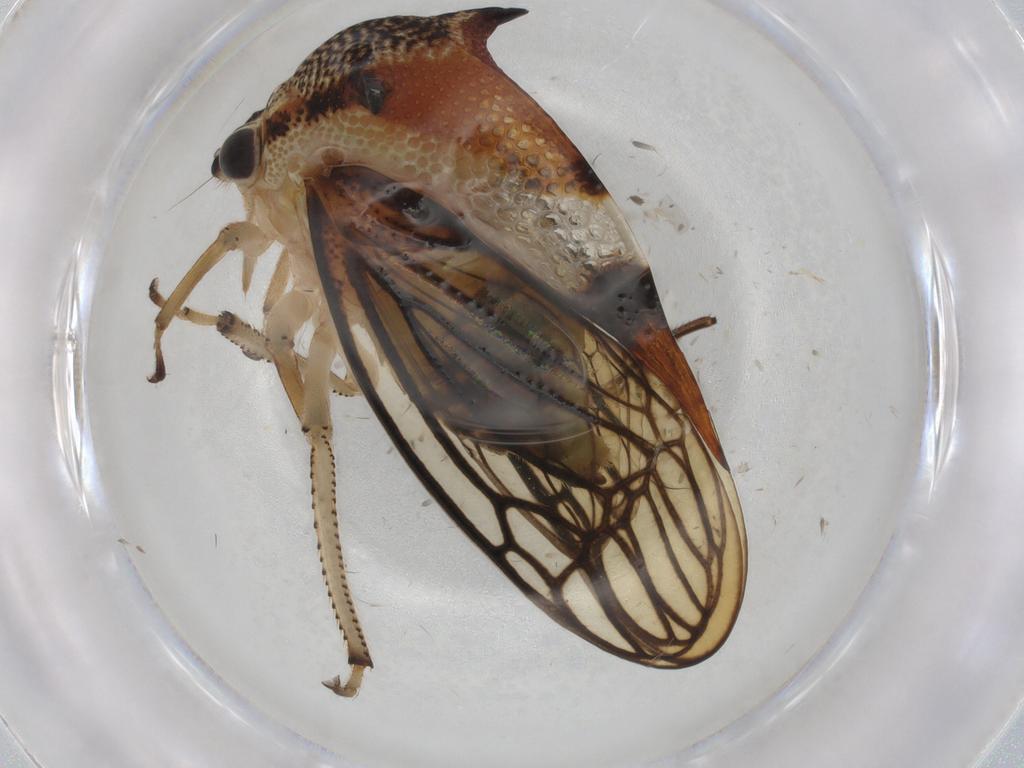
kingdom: Animalia
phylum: Arthropoda
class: Insecta
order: Hemiptera
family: Membracidae
